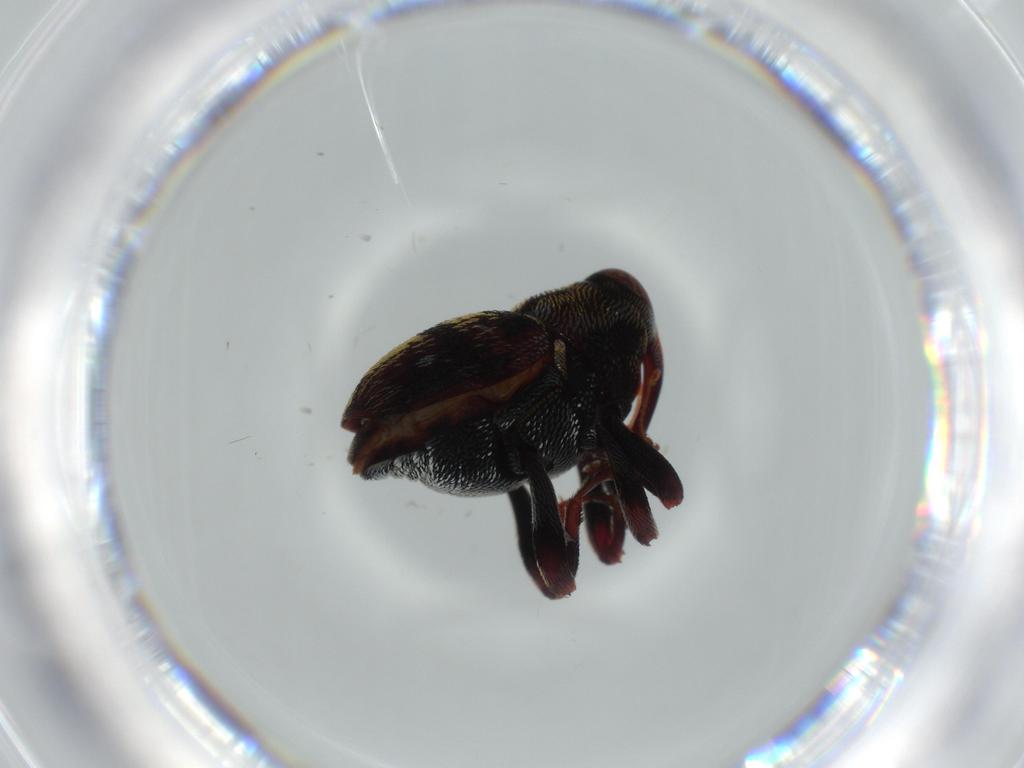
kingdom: Animalia
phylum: Arthropoda
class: Insecta
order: Coleoptera
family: Curculionidae
